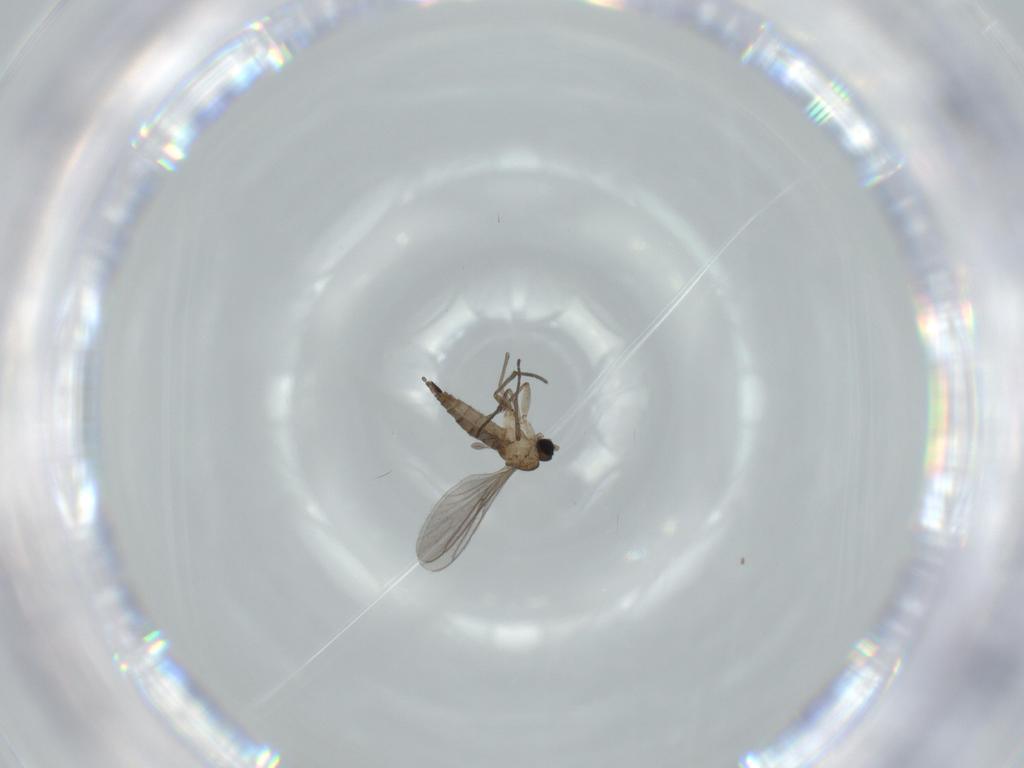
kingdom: Animalia
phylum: Arthropoda
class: Insecta
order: Diptera
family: Sciaridae
